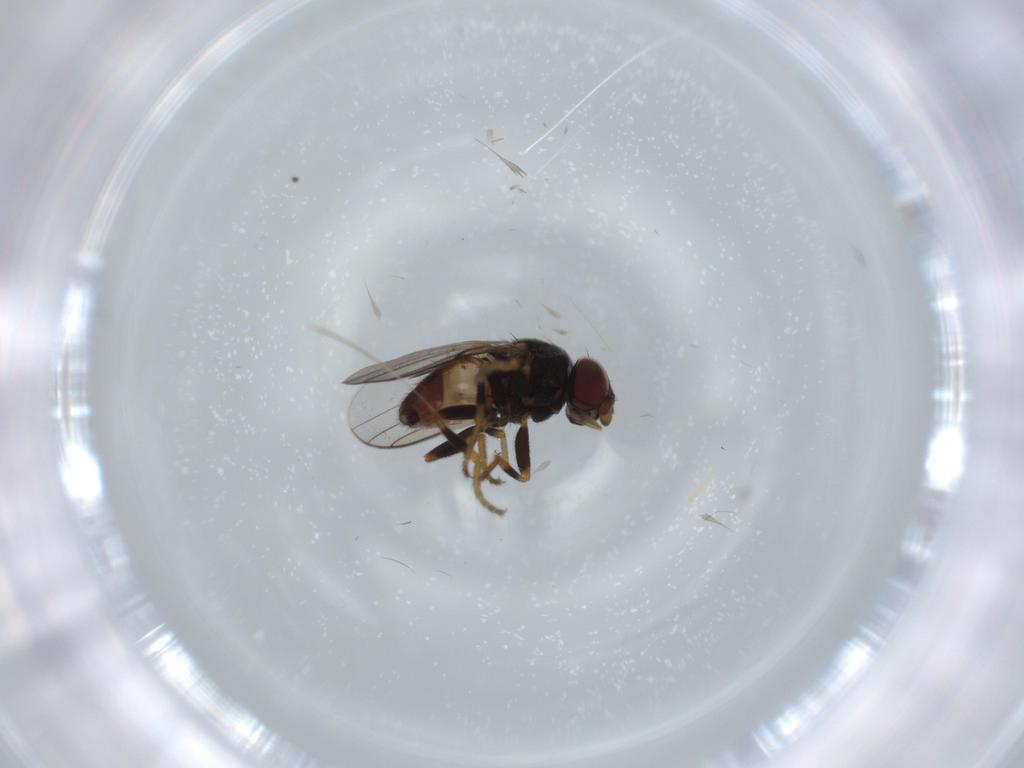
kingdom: Animalia
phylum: Arthropoda
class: Insecta
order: Diptera
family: Chloropidae
